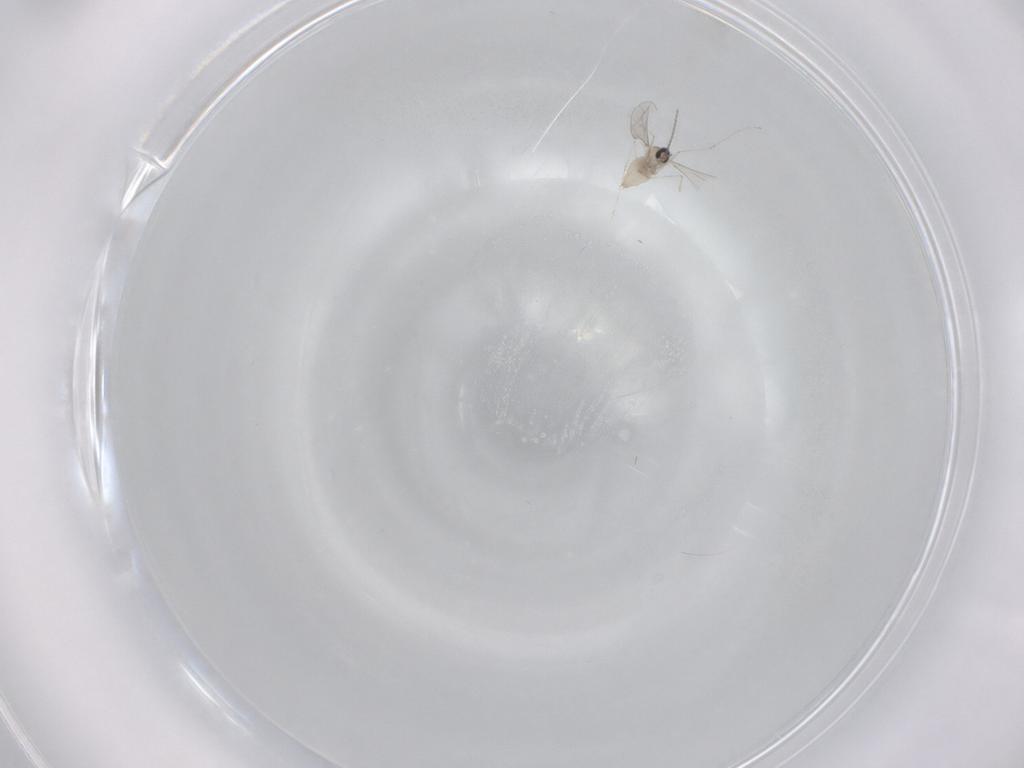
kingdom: Animalia
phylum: Arthropoda
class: Insecta
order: Diptera
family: Cecidomyiidae
